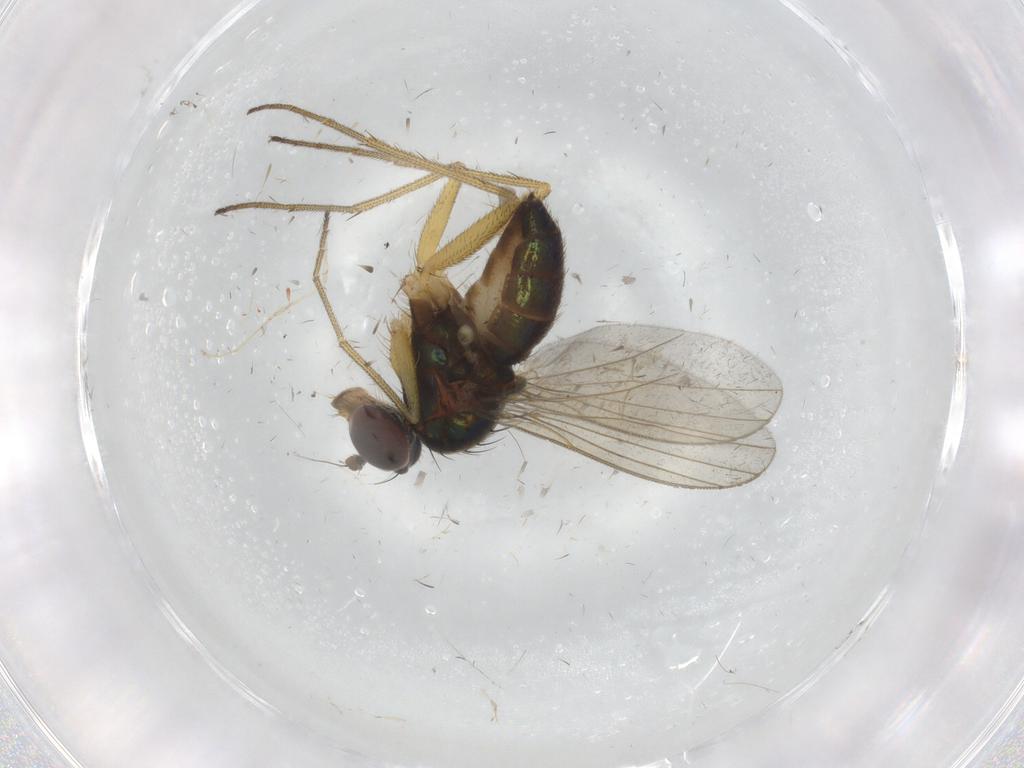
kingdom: Animalia
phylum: Arthropoda
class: Insecta
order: Diptera
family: Dolichopodidae
